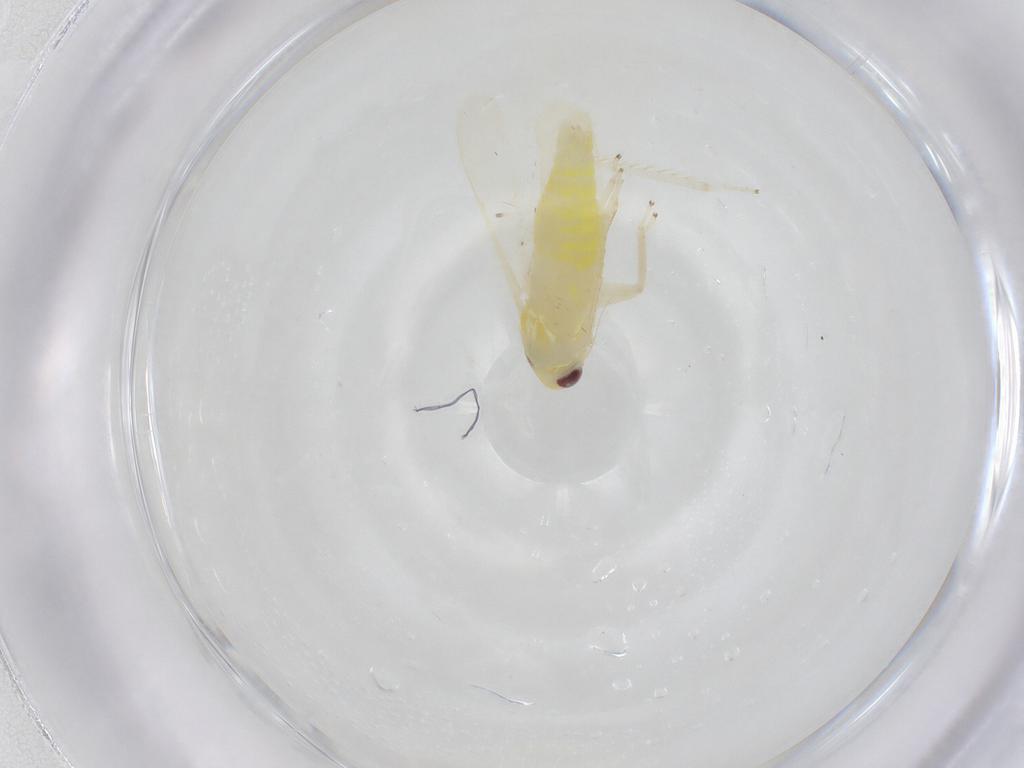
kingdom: Animalia
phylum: Arthropoda
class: Insecta
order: Hemiptera
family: Cicadellidae
